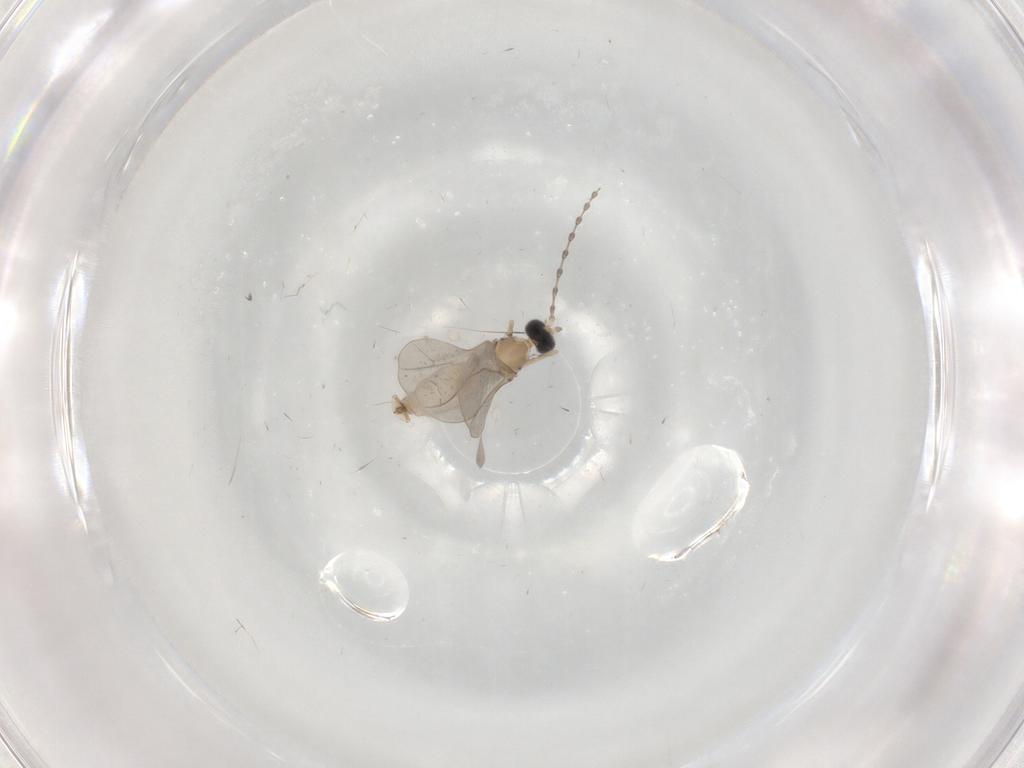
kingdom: Animalia
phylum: Arthropoda
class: Insecta
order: Diptera
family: Cecidomyiidae
